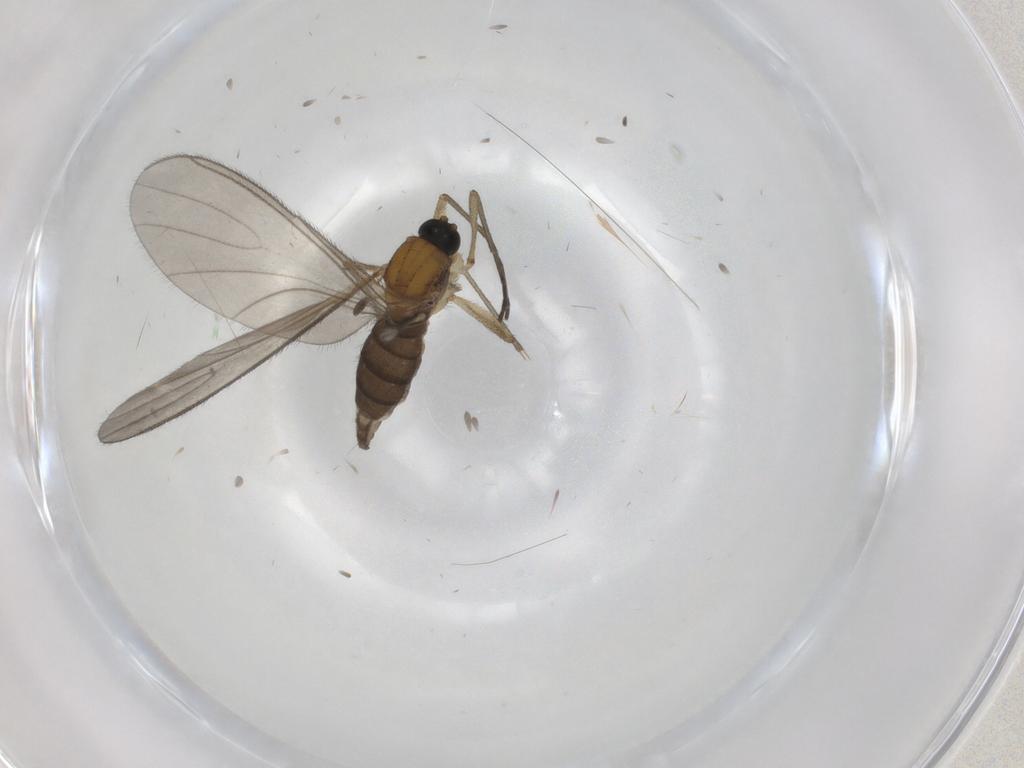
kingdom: Animalia
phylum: Arthropoda
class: Insecta
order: Diptera
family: Sciaridae
